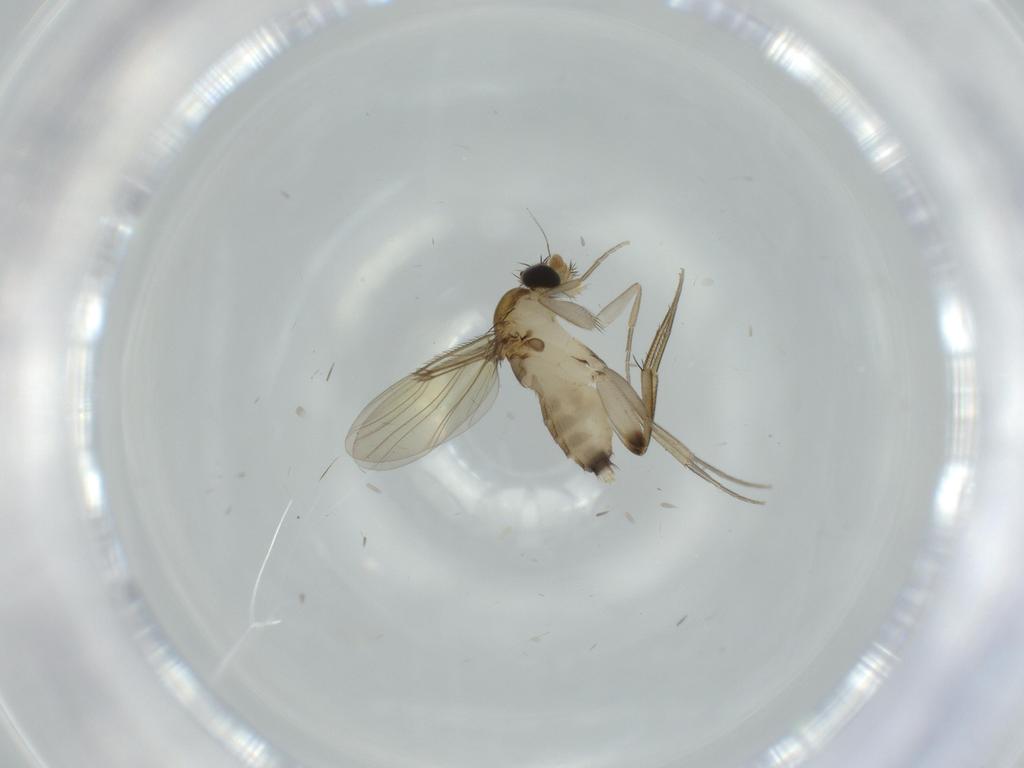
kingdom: Animalia
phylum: Arthropoda
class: Insecta
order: Diptera
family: Phoridae
